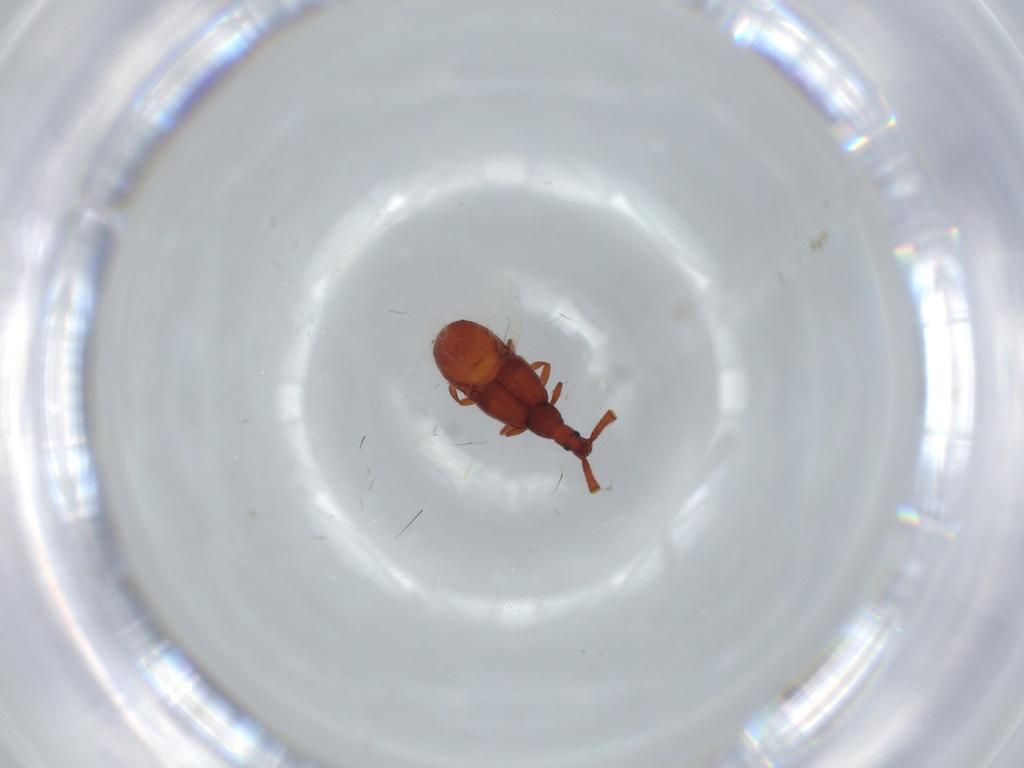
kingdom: Animalia
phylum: Arthropoda
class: Insecta
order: Coleoptera
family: Staphylinidae
